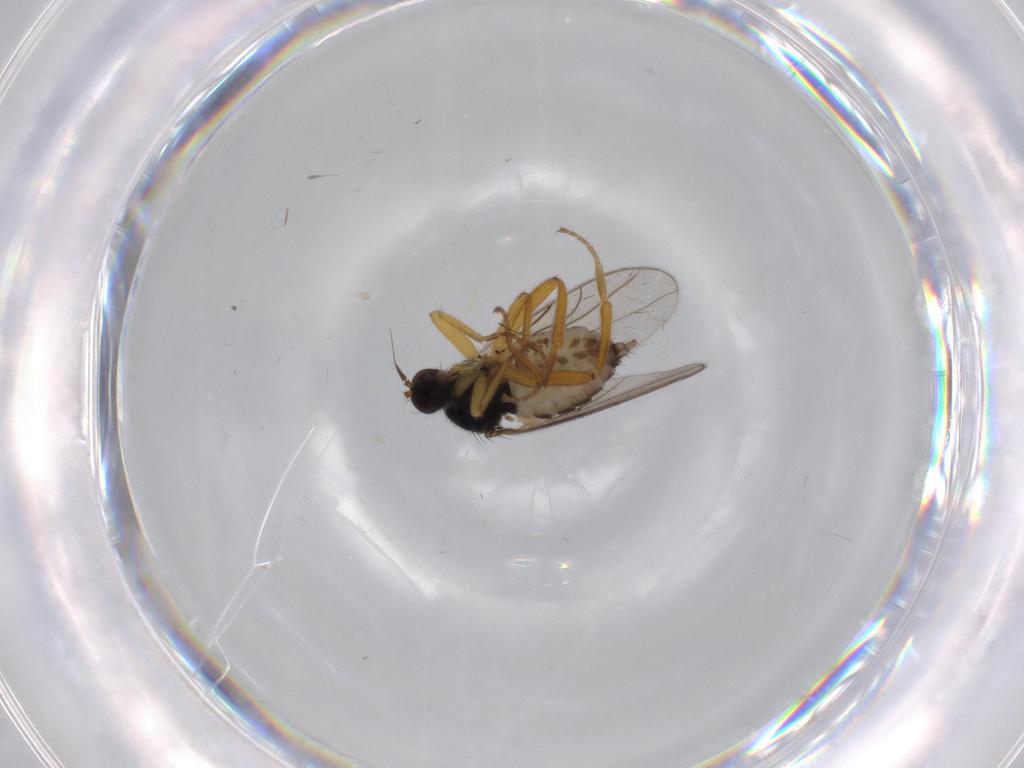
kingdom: Animalia
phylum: Arthropoda
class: Insecta
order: Diptera
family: Hybotidae
